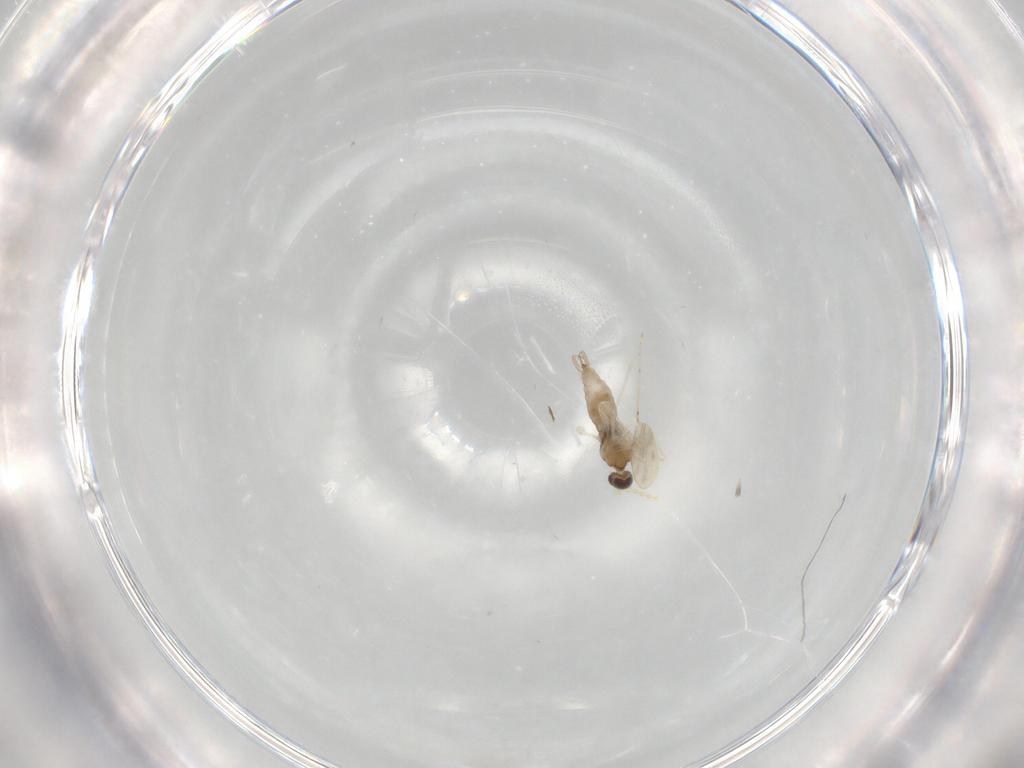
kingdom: Animalia
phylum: Arthropoda
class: Insecta
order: Diptera
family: Cecidomyiidae
